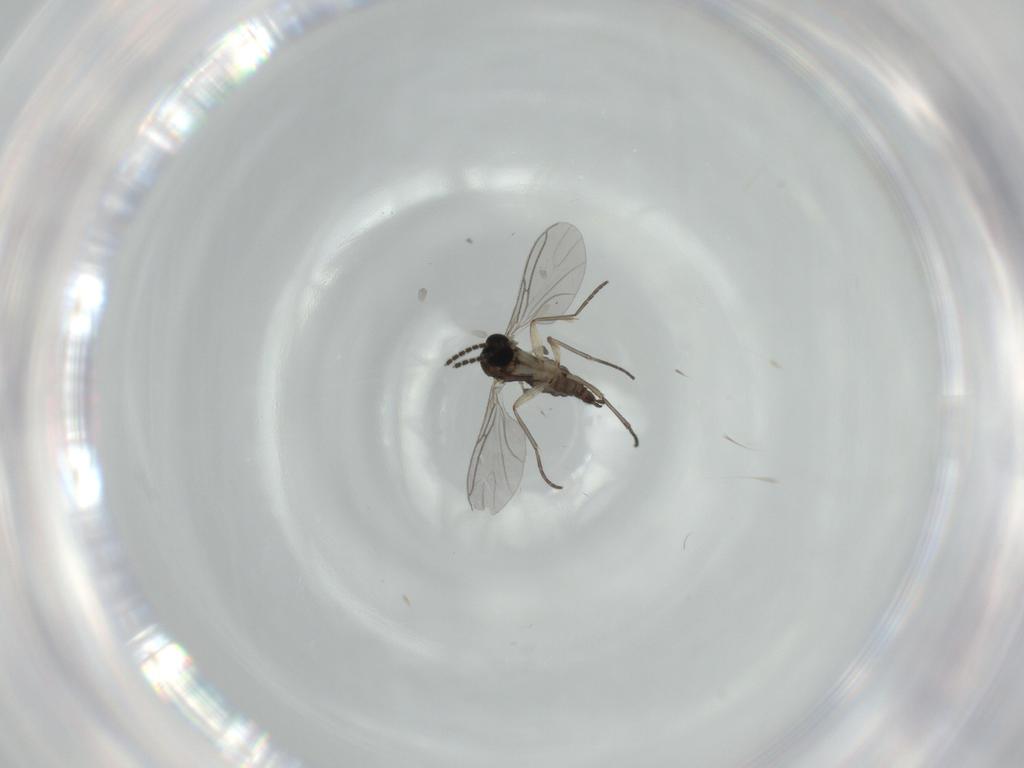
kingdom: Animalia
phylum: Arthropoda
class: Insecta
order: Diptera
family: Sciaridae
